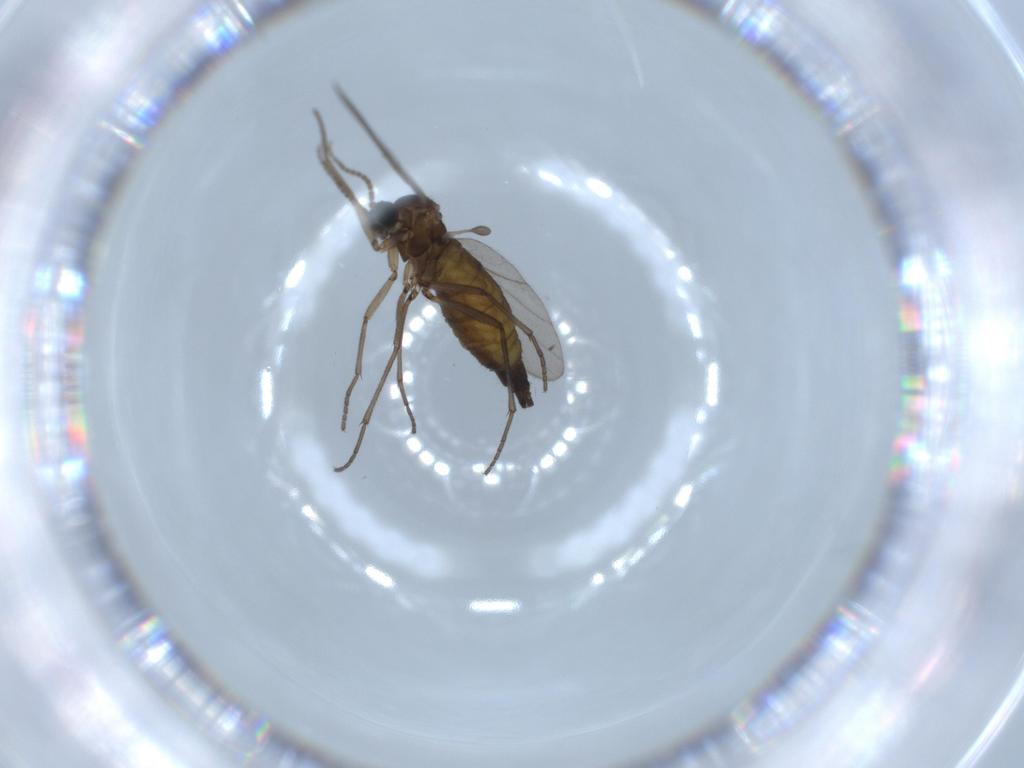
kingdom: Animalia
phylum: Arthropoda
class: Insecta
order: Diptera
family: Sciaridae
